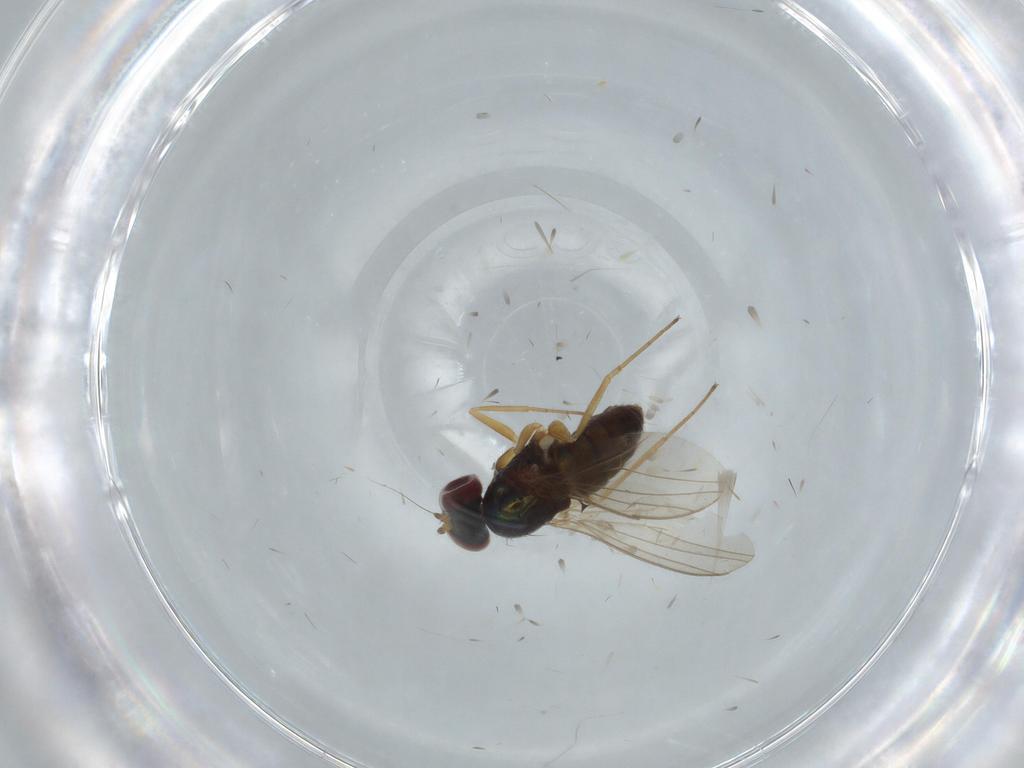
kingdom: Animalia
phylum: Arthropoda
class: Insecta
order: Diptera
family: Dolichopodidae
